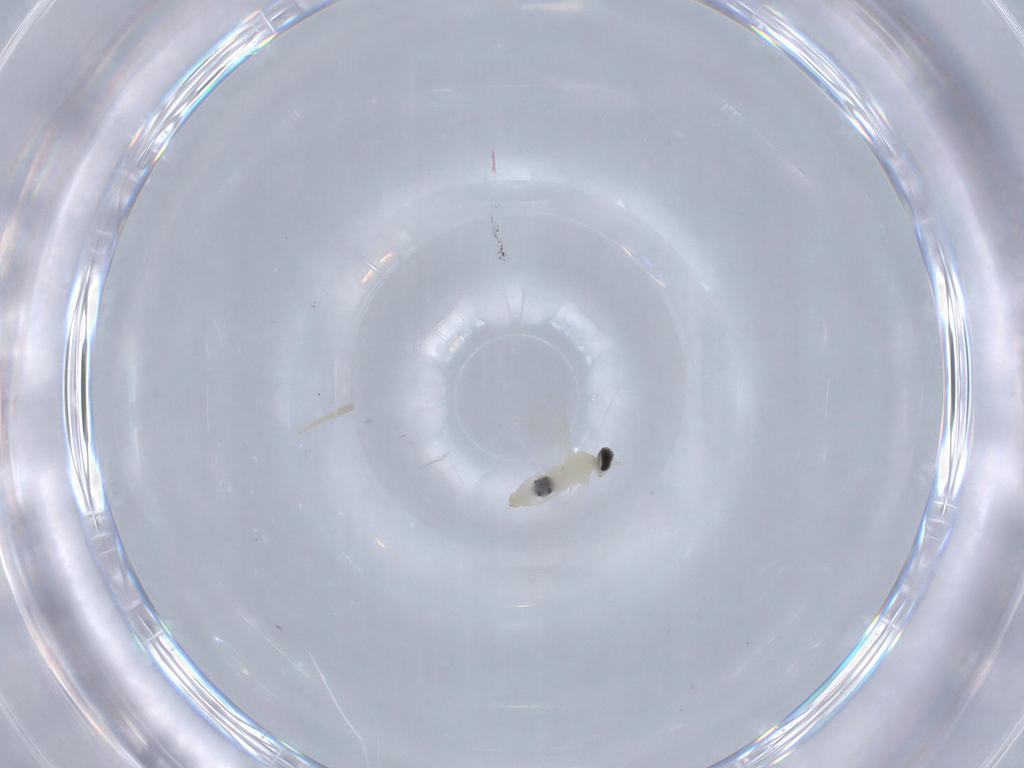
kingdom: Animalia
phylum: Arthropoda
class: Insecta
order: Diptera
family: Cecidomyiidae
